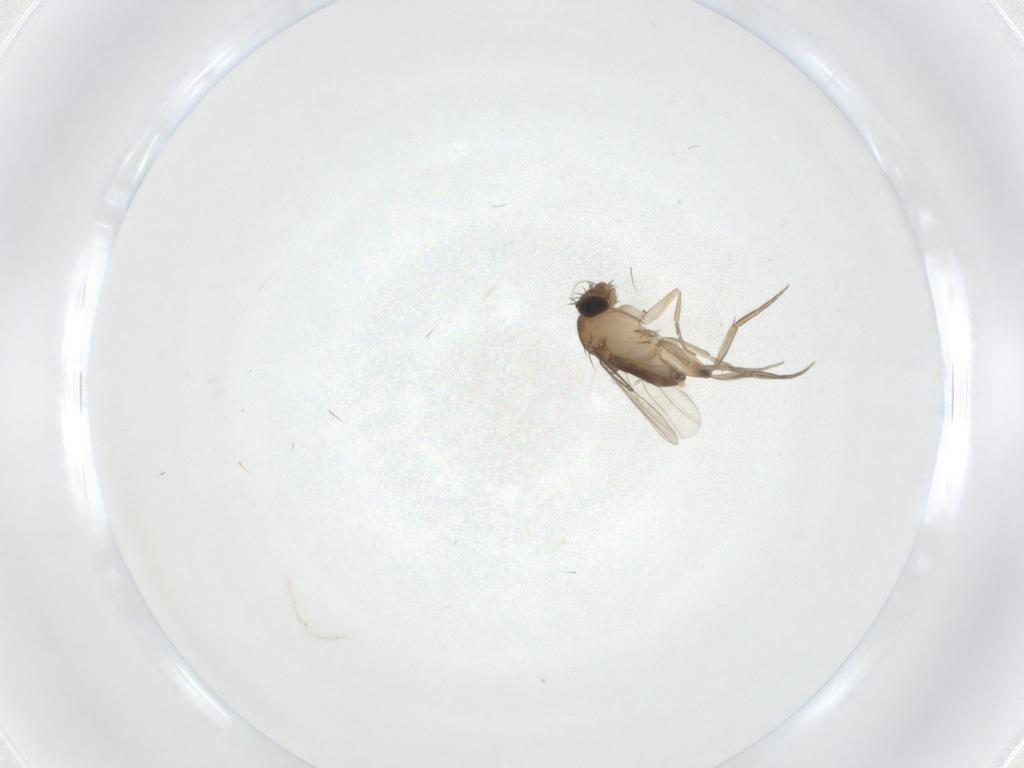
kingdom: Animalia
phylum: Arthropoda
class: Insecta
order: Diptera
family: Phoridae
